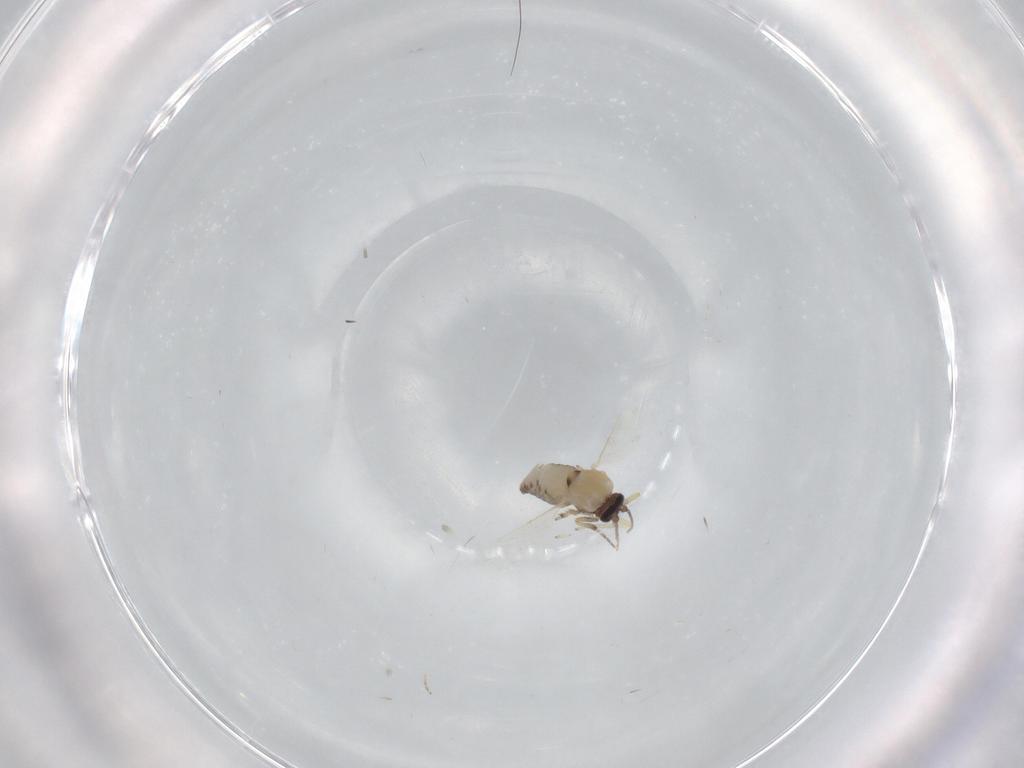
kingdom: Animalia
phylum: Arthropoda
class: Insecta
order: Diptera
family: Ceratopogonidae
